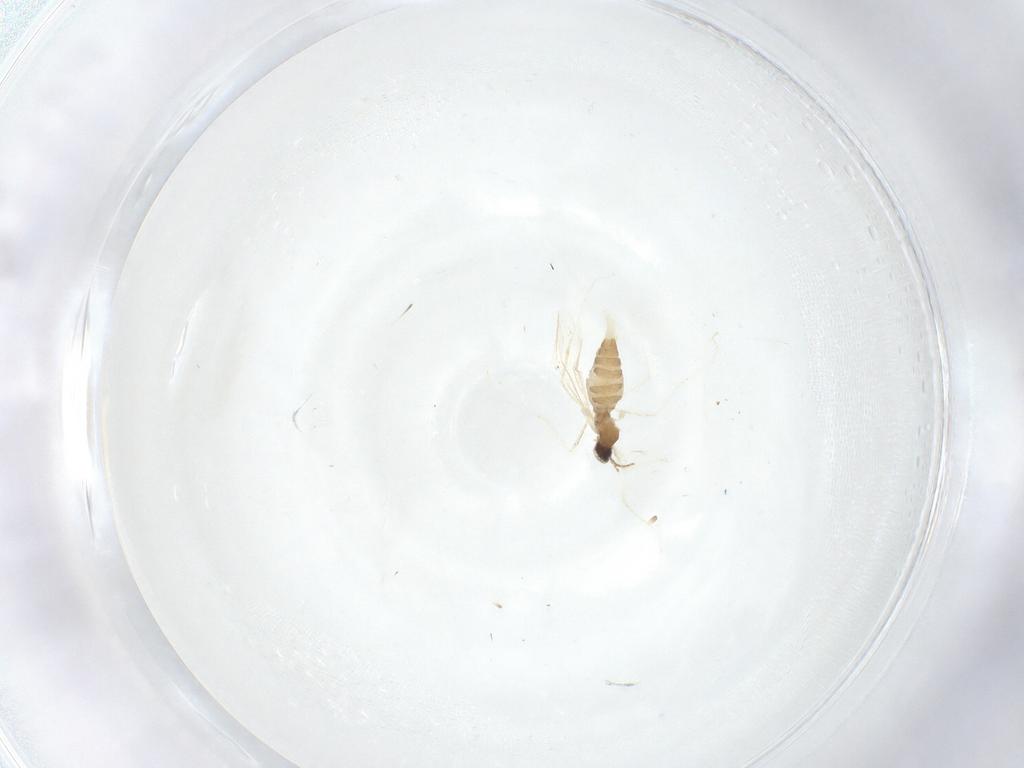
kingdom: Animalia
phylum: Arthropoda
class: Insecta
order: Diptera
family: Cecidomyiidae
